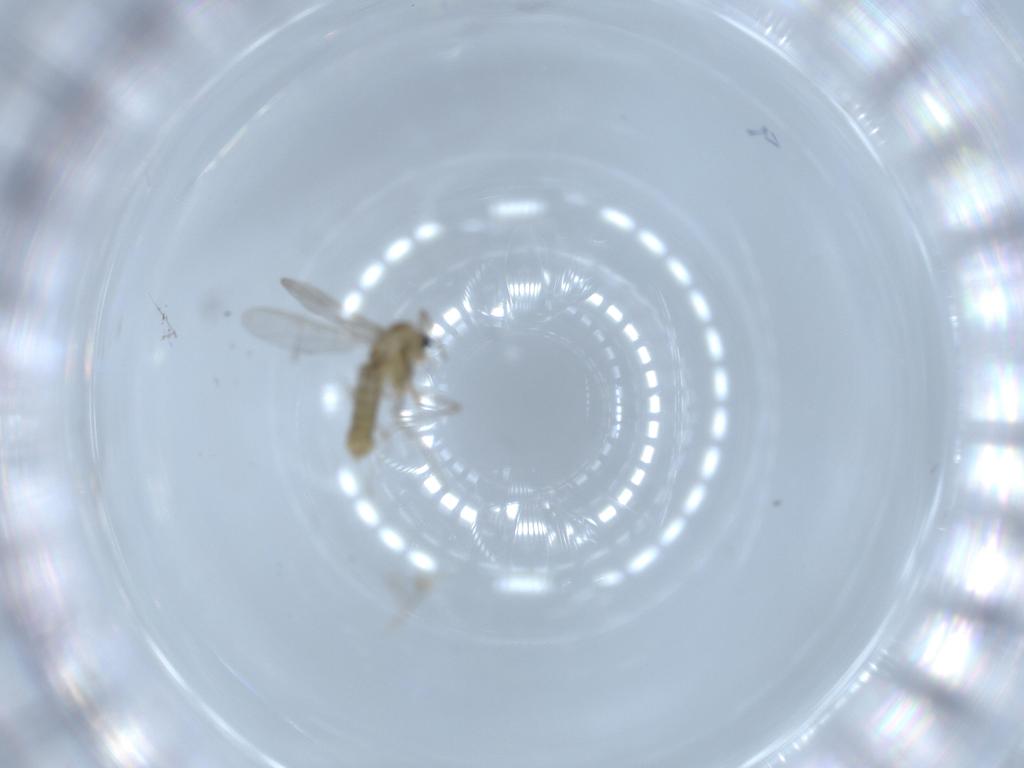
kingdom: Animalia
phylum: Arthropoda
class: Insecta
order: Diptera
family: Chironomidae
